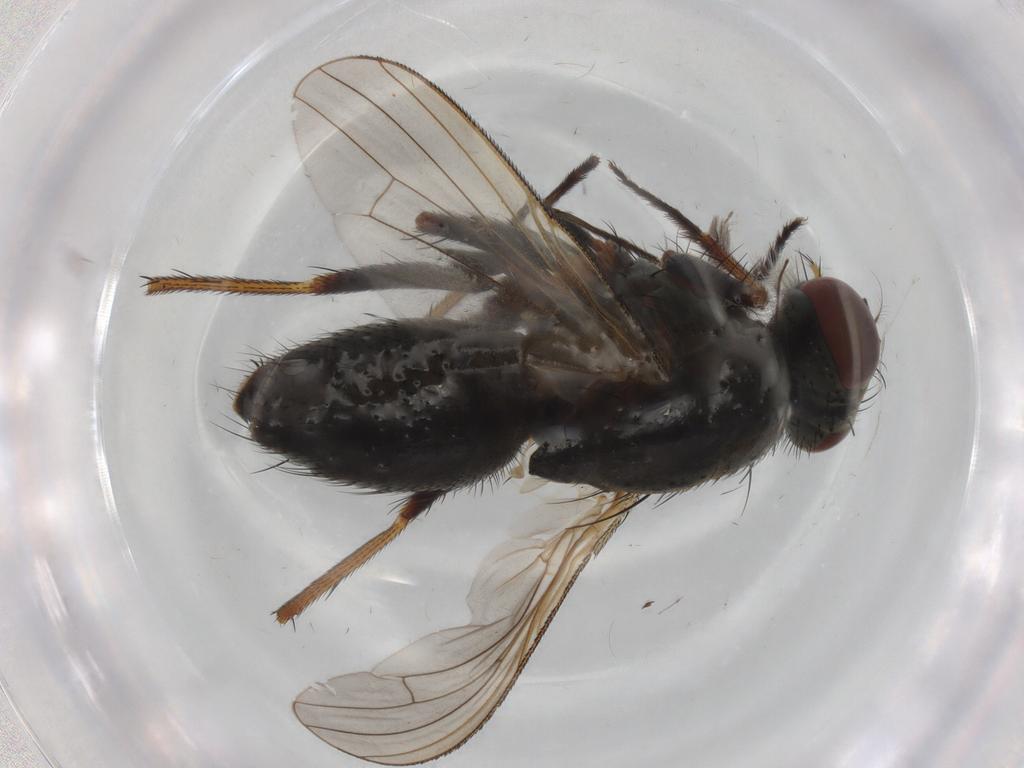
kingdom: Animalia
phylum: Arthropoda
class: Insecta
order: Diptera
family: Muscidae
